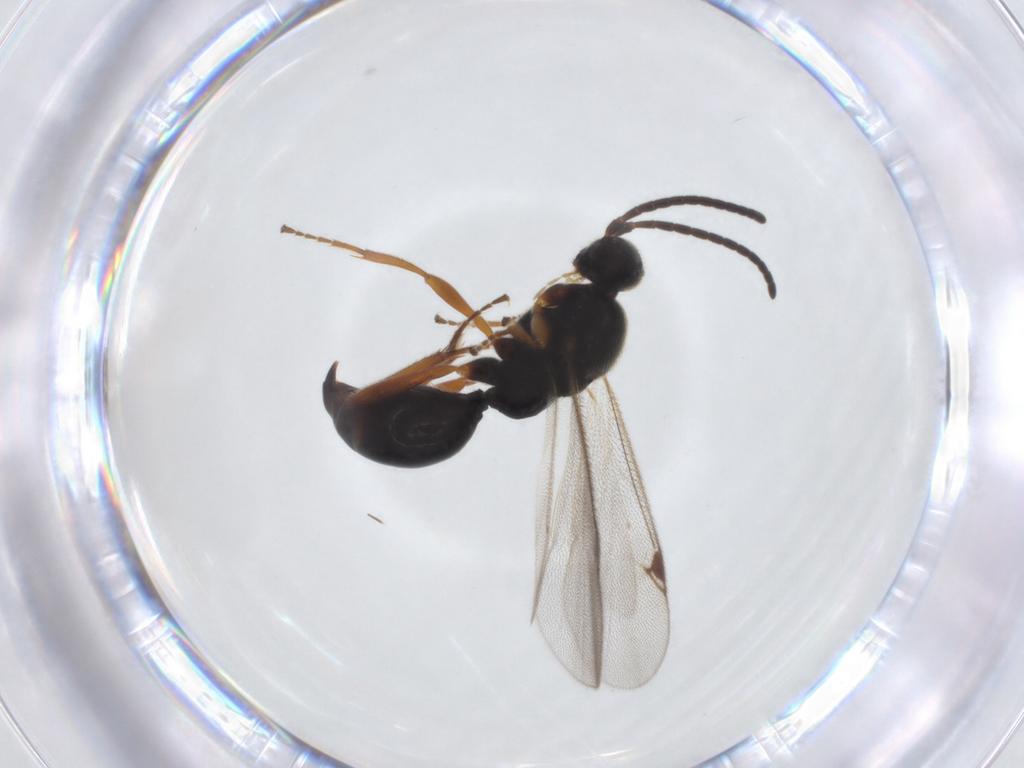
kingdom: Animalia
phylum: Arthropoda
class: Insecta
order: Hymenoptera
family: Proctotrupidae
